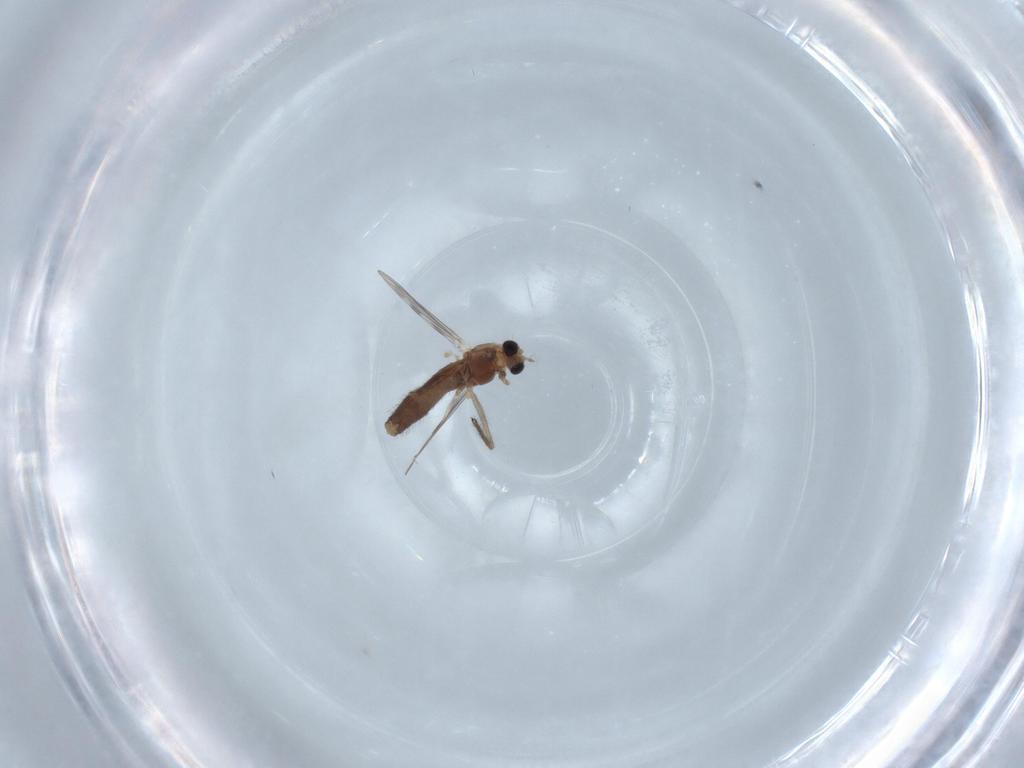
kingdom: Animalia
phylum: Arthropoda
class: Insecta
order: Diptera
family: Chironomidae
